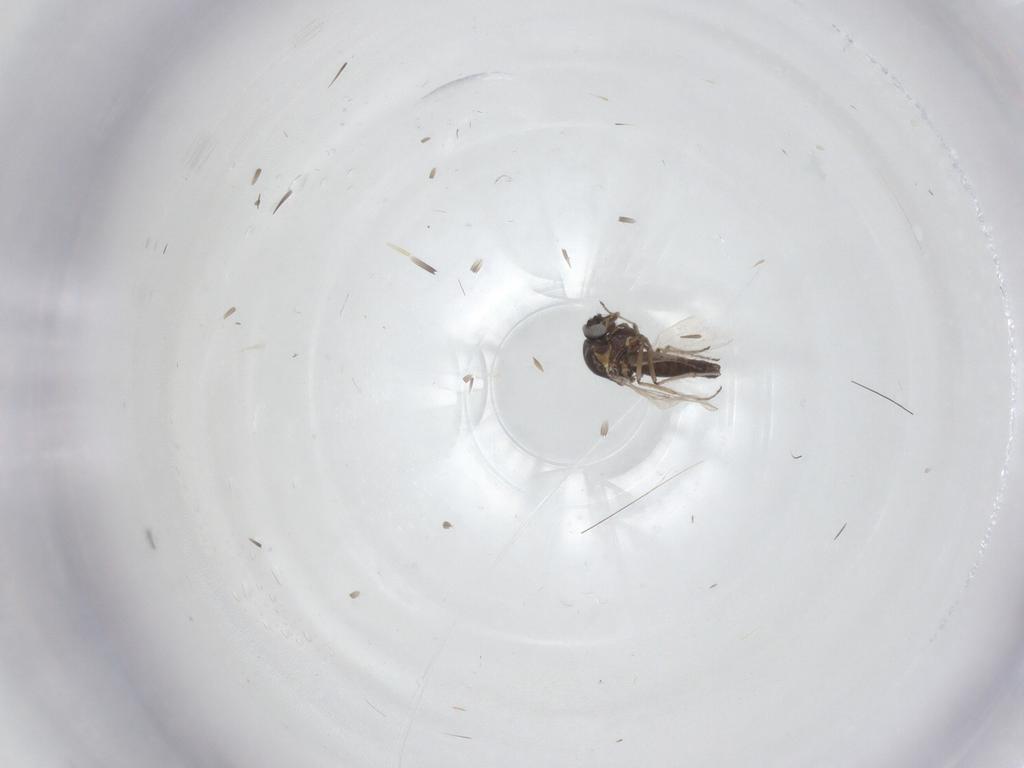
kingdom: Animalia
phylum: Arthropoda
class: Insecta
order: Diptera
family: Ceratopogonidae
